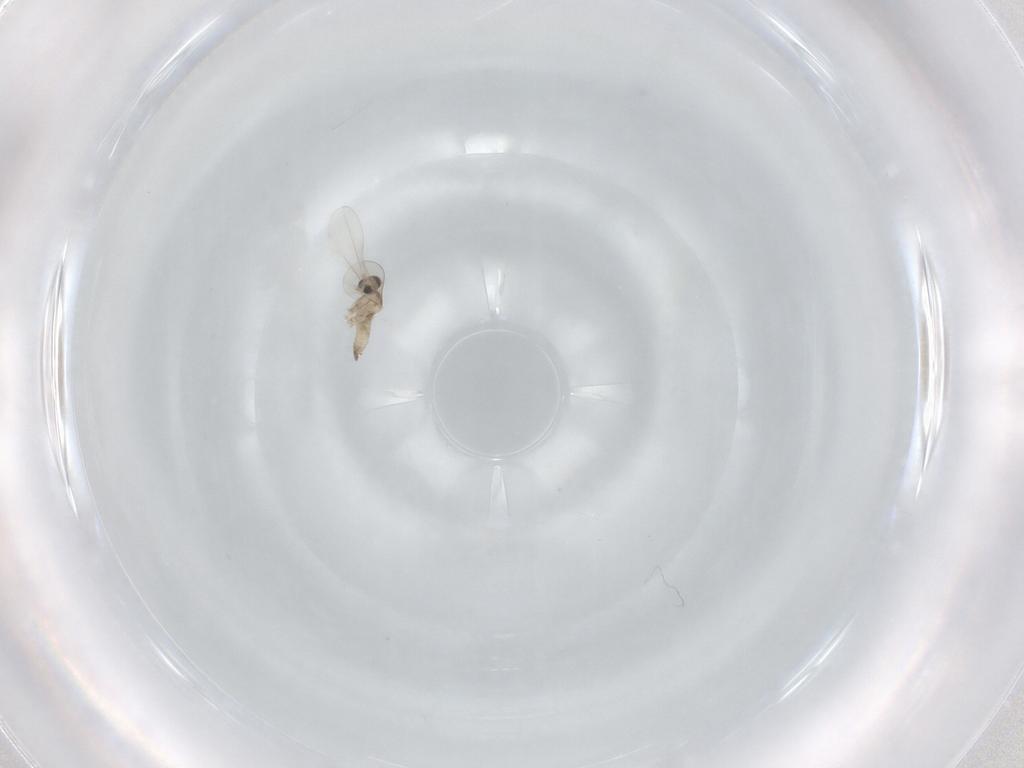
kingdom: Animalia
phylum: Arthropoda
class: Insecta
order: Diptera
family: Cecidomyiidae
